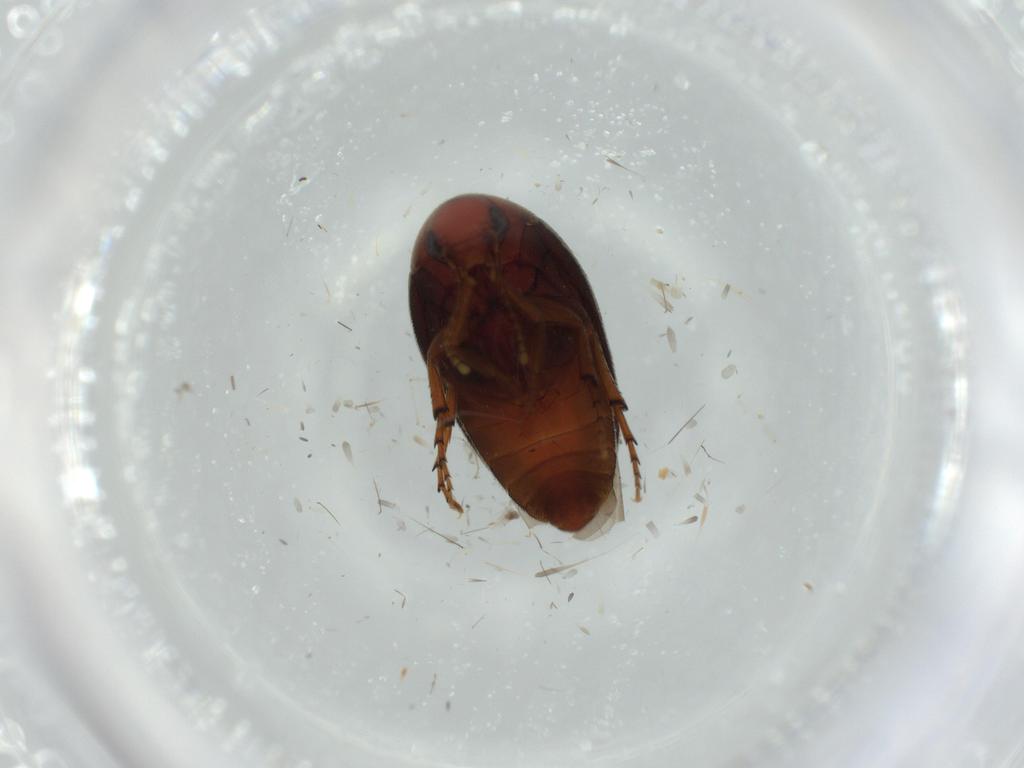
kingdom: Animalia
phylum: Arthropoda
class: Insecta
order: Coleoptera
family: Eucinetidae
